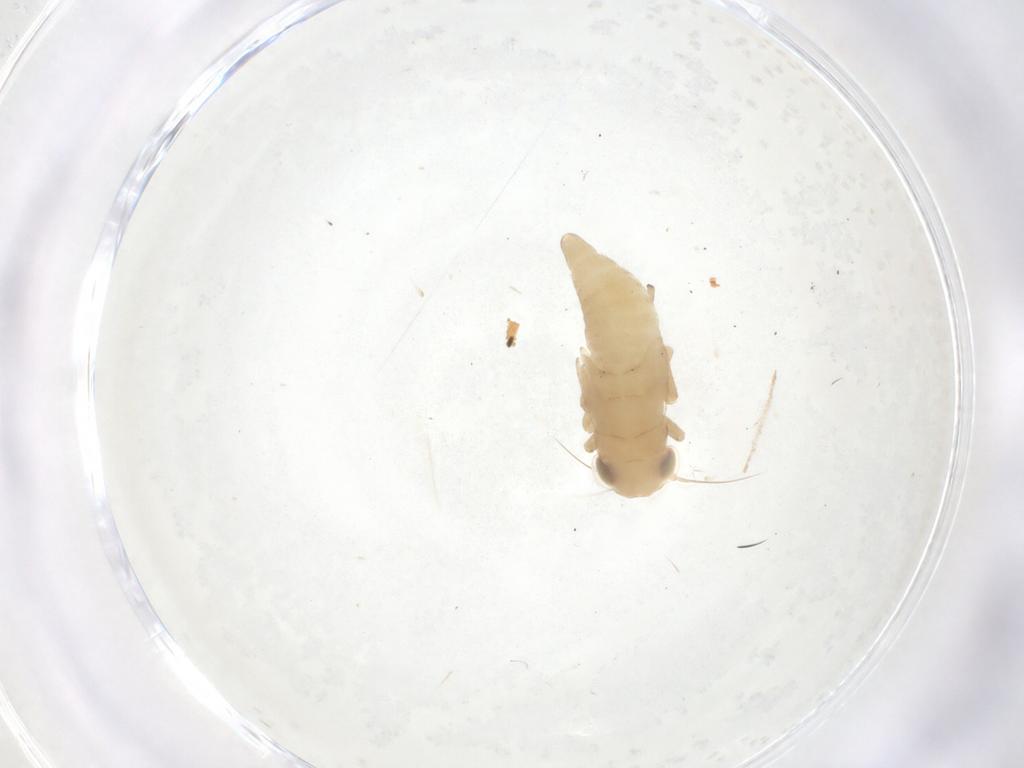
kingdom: Animalia
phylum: Arthropoda
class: Insecta
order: Hemiptera
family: Cicadellidae
